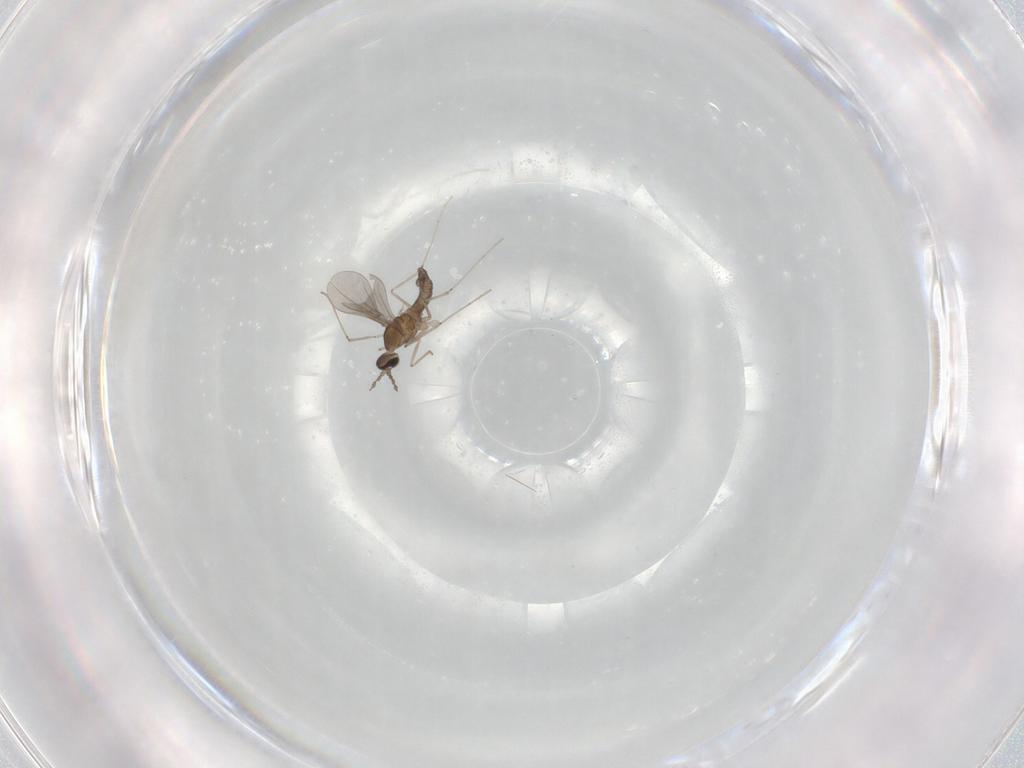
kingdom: Animalia
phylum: Arthropoda
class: Insecta
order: Diptera
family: Cecidomyiidae
